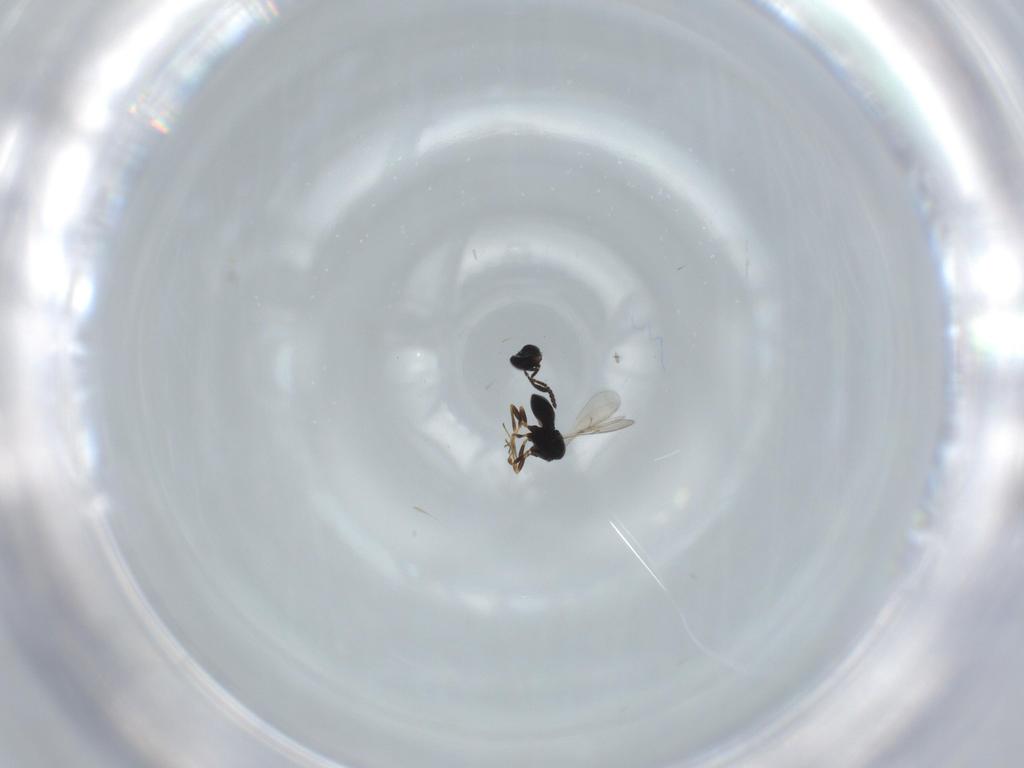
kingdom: Animalia
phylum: Arthropoda
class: Insecta
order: Hymenoptera
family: Scelionidae
